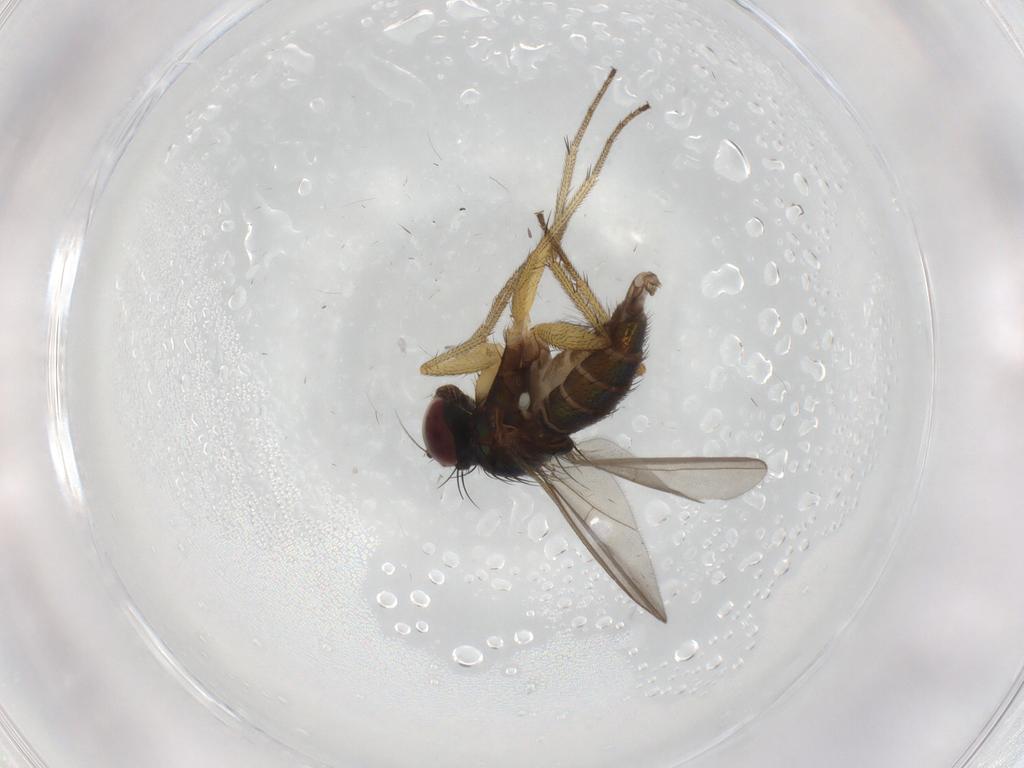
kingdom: Animalia
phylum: Arthropoda
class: Insecta
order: Diptera
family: Dolichopodidae
